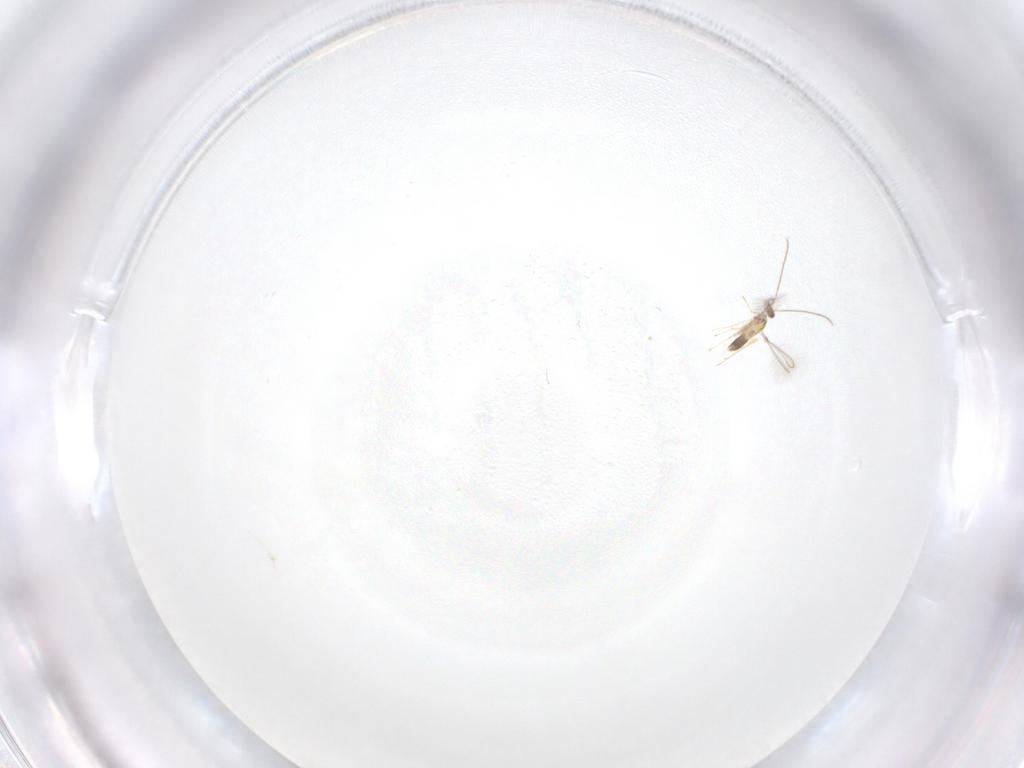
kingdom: Animalia
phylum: Arthropoda
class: Insecta
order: Hymenoptera
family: Mymaridae
